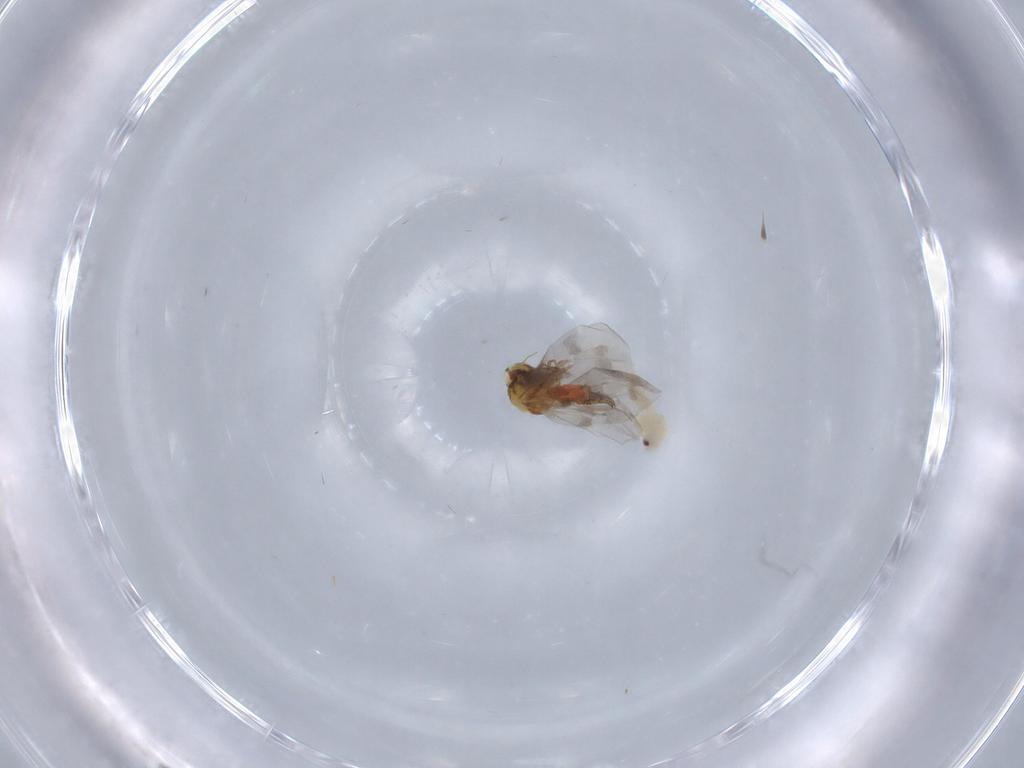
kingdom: Animalia
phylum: Arthropoda
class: Insecta
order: Hemiptera
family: Aleyrodidae
